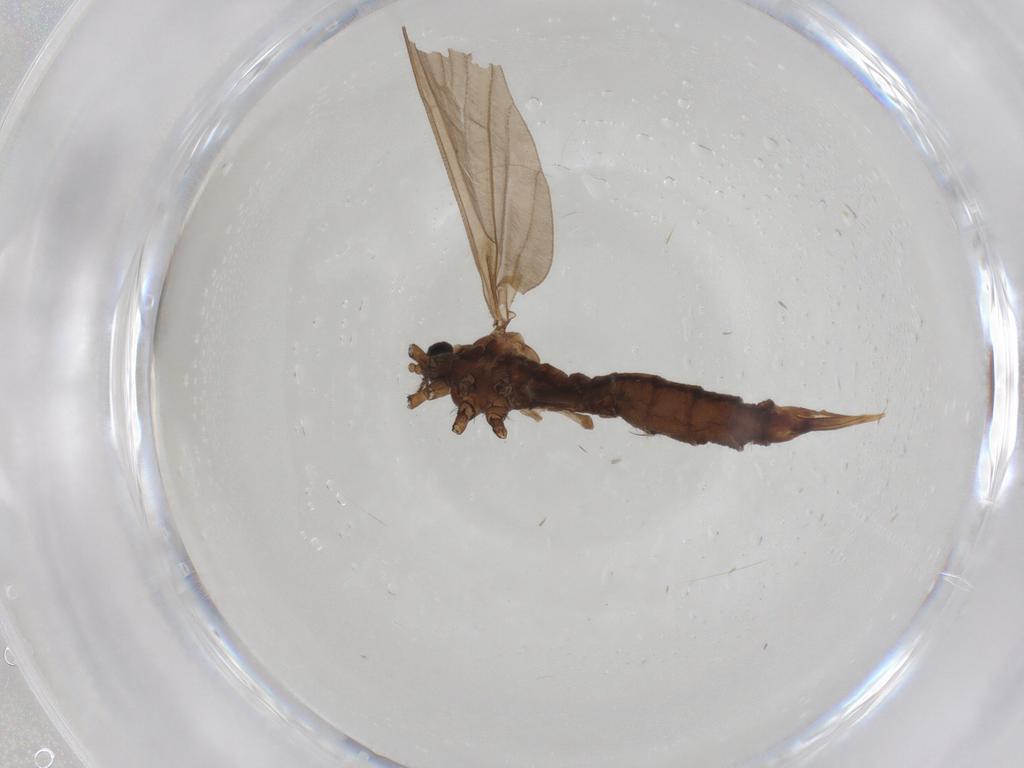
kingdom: Animalia
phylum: Arthropoda
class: Insecta
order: Diptera
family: Limoniidae
